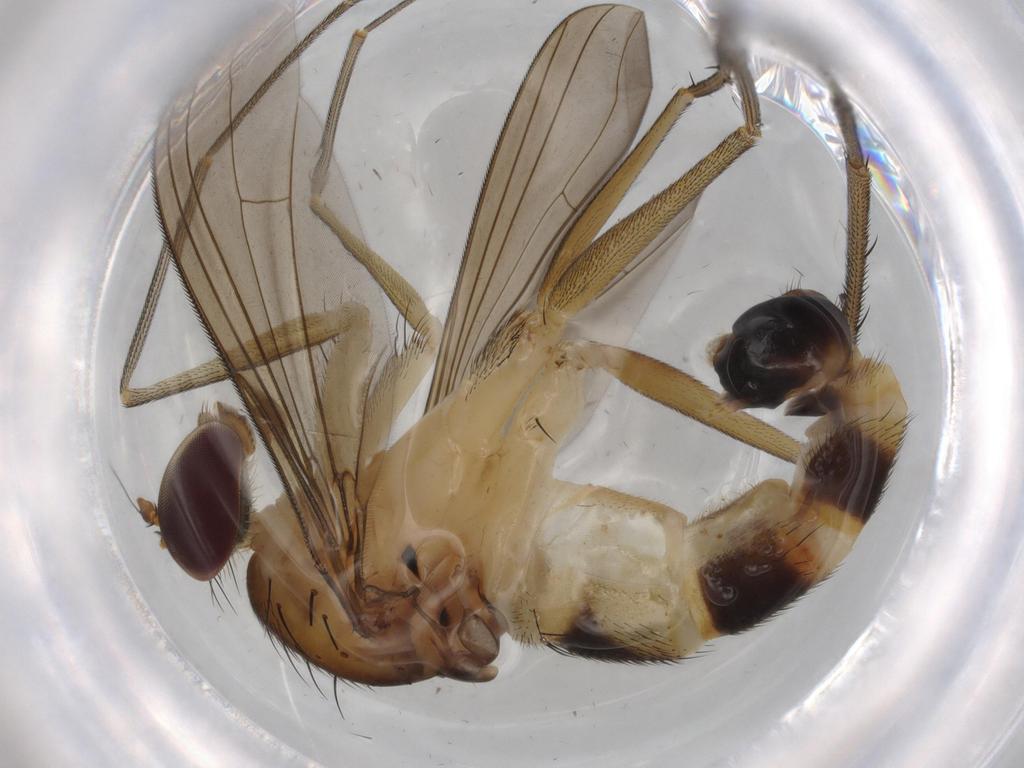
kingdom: Animalia
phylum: Arthropoda
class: Insecta
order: Diptera
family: Dolichopodidae
